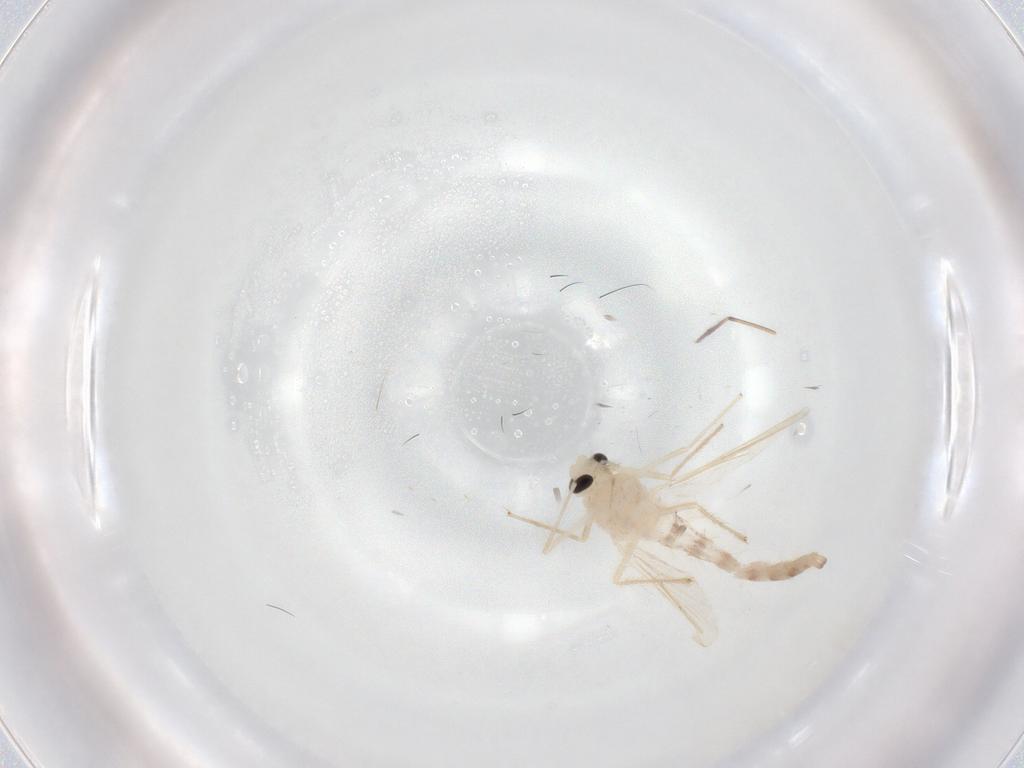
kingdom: Animalia
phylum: Arthropoda
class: Insecta
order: Diptera
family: Chironomidae
